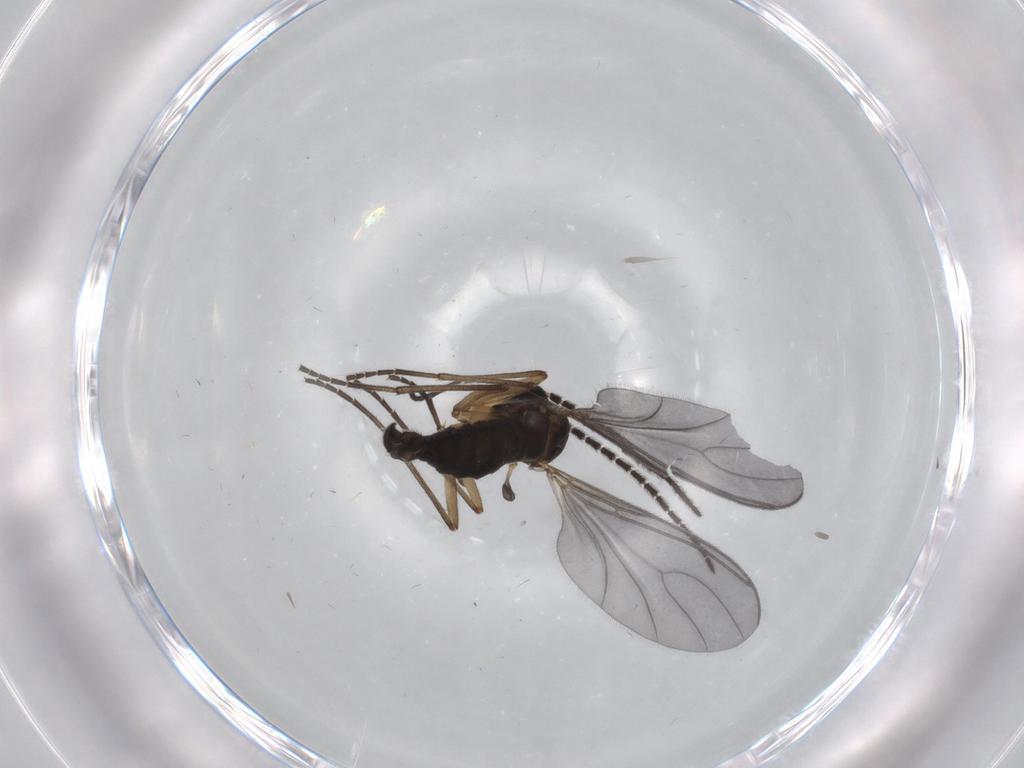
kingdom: Animalia
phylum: Arthropoda
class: Insecta
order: Diptera
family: Sciaridae
